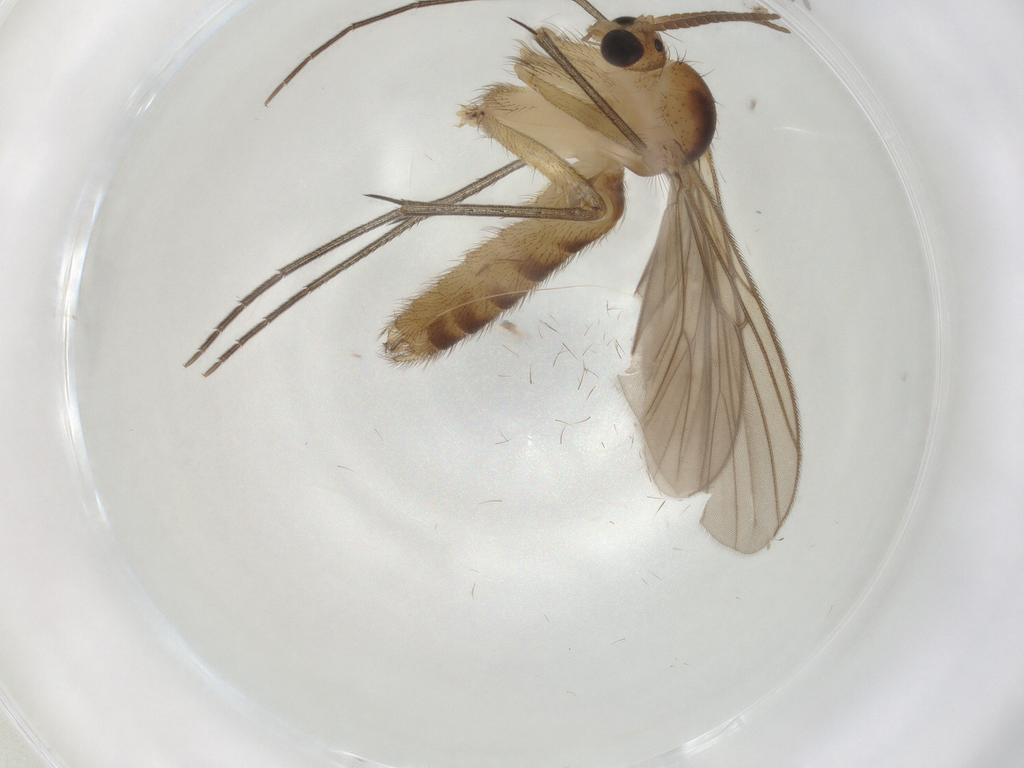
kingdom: Animalia
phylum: Arthropoda
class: Insecta
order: Diptera
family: Cecidomyiidae
